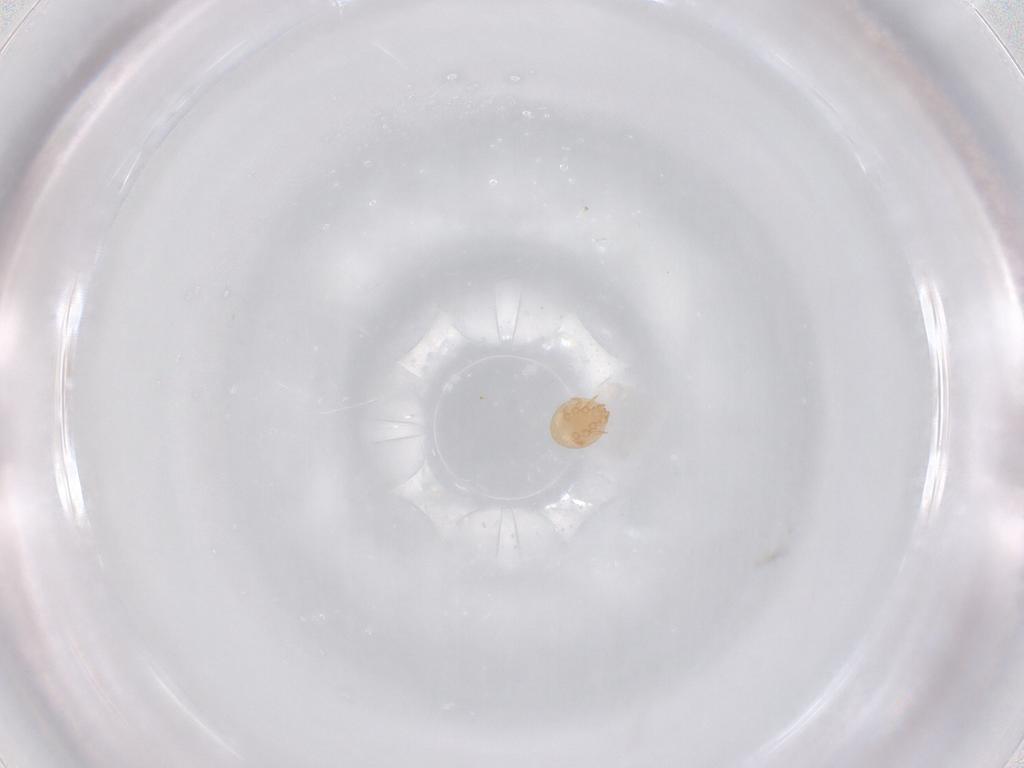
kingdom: Animalia
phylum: Arthropoda
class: Arachnida
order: Mesostigmata
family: Trematuridae
